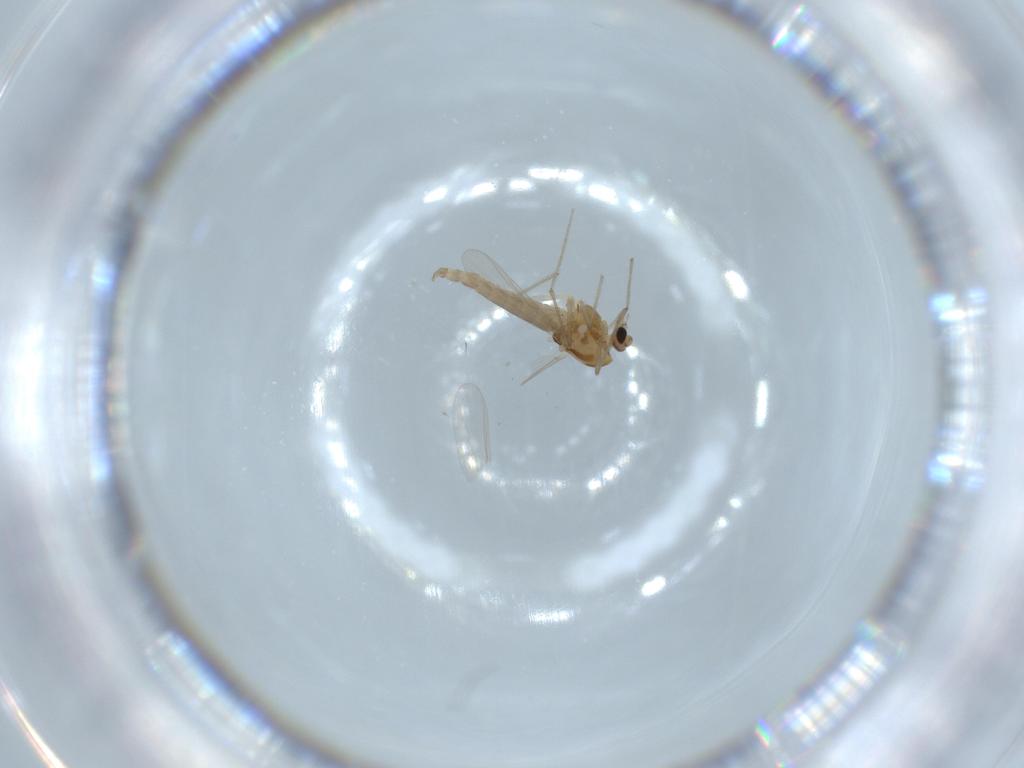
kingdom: Animalia
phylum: Arthropoda
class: Insecta
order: Diptera
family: Chironomidae
